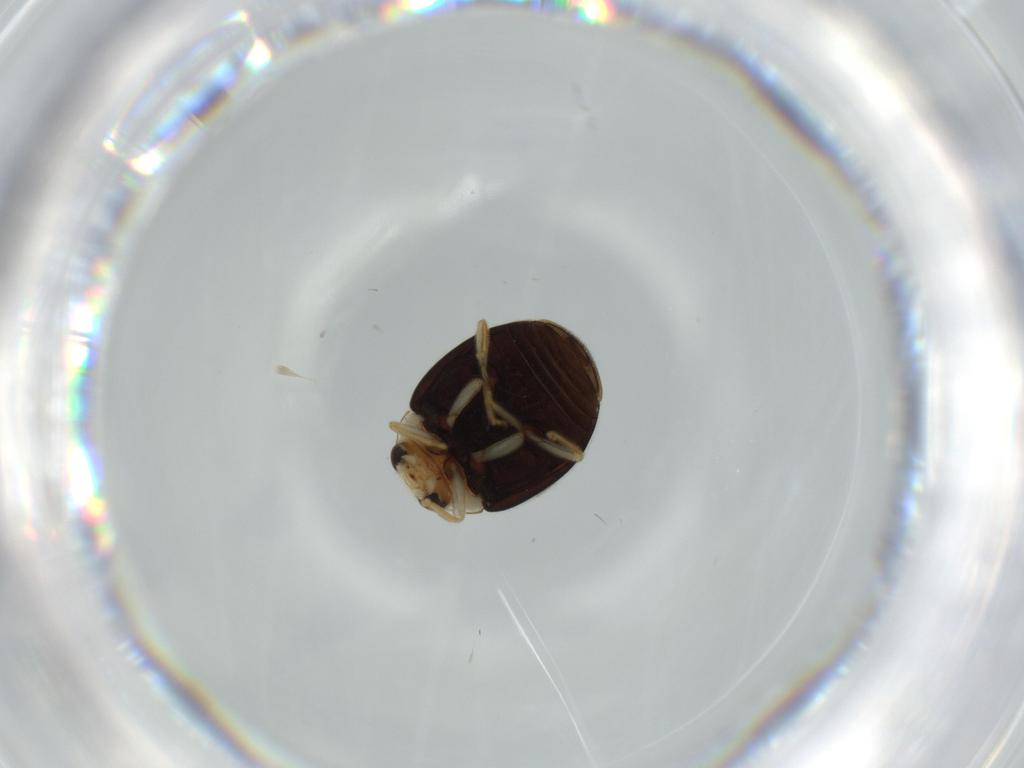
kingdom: Animalia
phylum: Arthropoda
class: Insecta
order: Coleoptera
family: Coccinellidae
